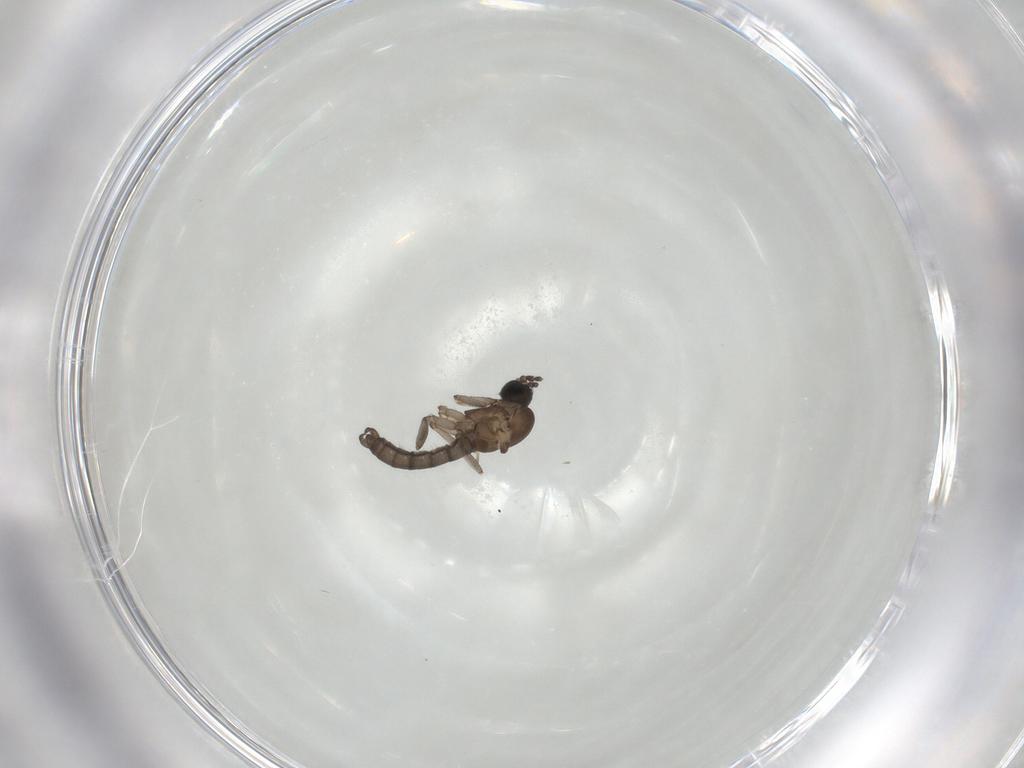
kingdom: Animalia
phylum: Arthropoda
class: Insecta
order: Diptera
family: Sciaridae
